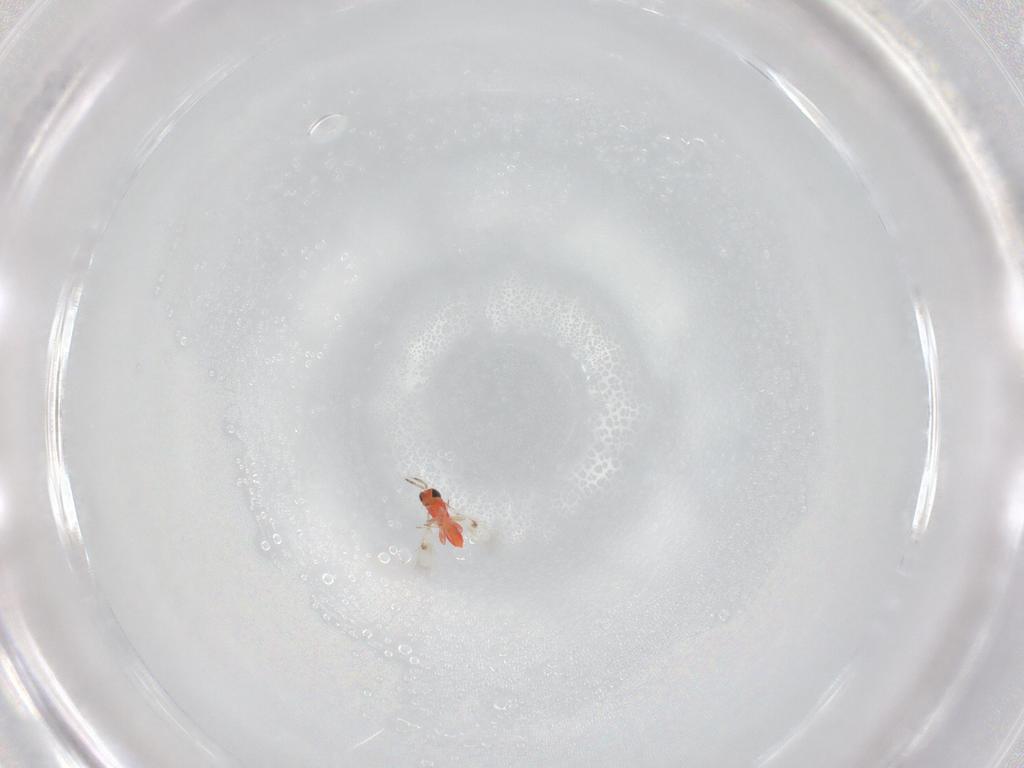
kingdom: Animalia
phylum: Arthropoda
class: Insecta
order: Hymenoptera
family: Trichogrammatidae
